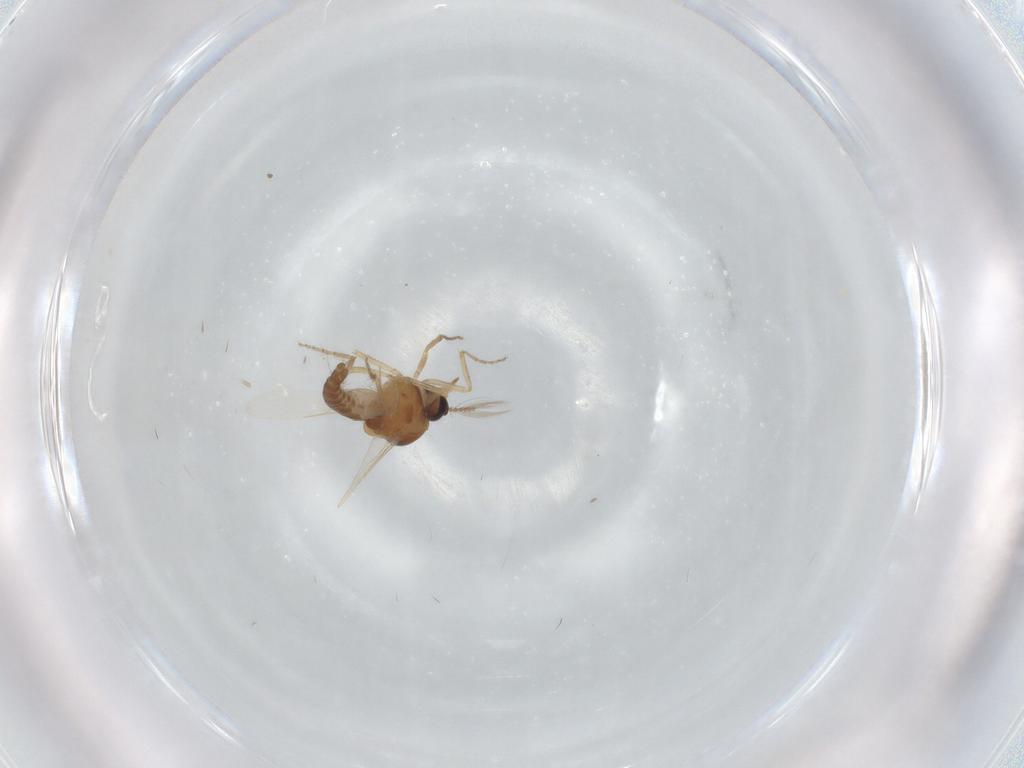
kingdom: Animalia
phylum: Arthropoda
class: Insecta
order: Diptera
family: Ceratopogonidae
